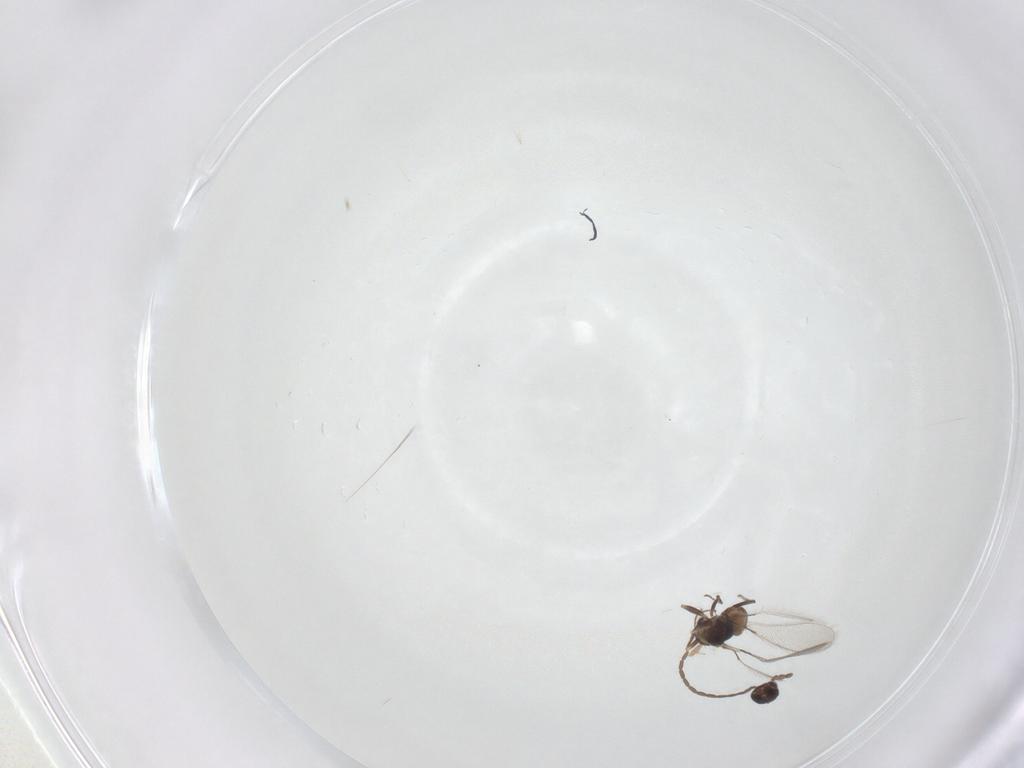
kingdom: Animalia
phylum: Arthropoda
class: Insecta
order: Hymenoptera
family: Mymaridae
